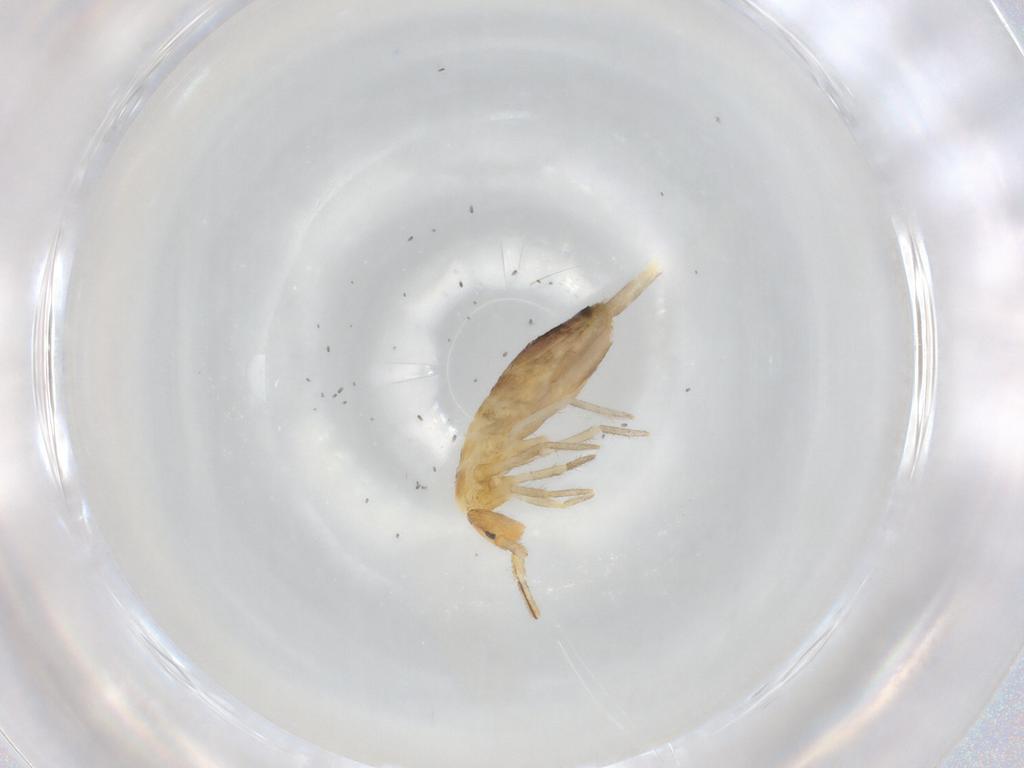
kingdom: Animalia
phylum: Arthropoda
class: Collembola
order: Entomobryomorpha
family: Entomobryidae
